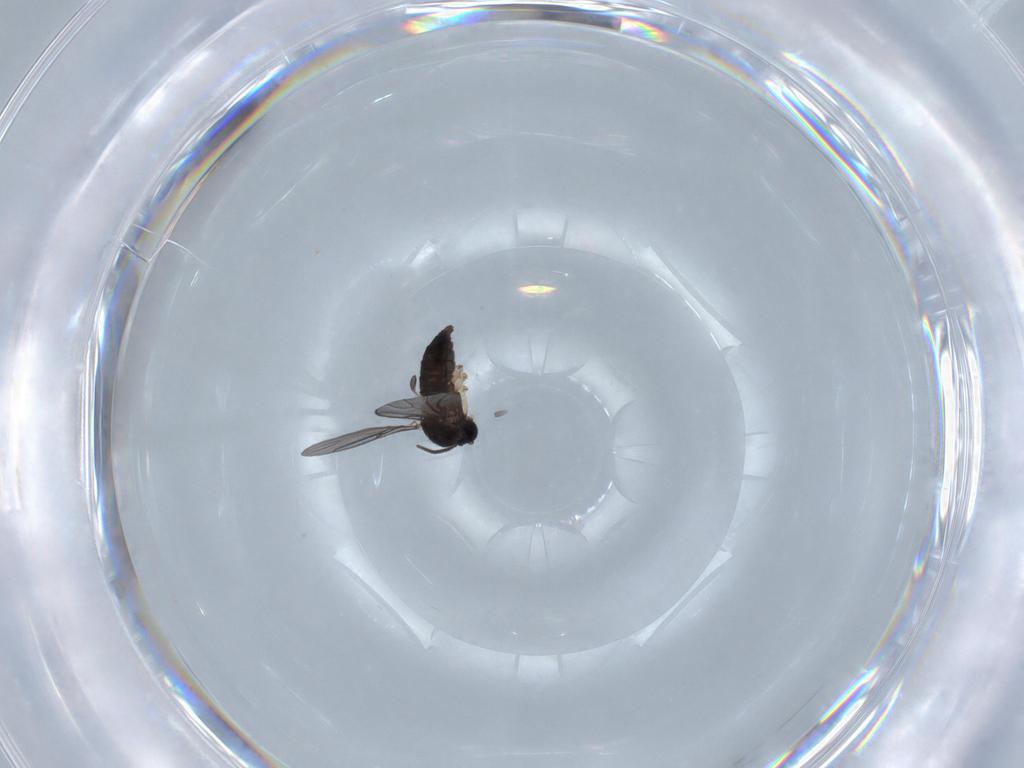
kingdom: Animalia
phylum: Arthropoda
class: Insecta
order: Diptera
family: Sciaridae
